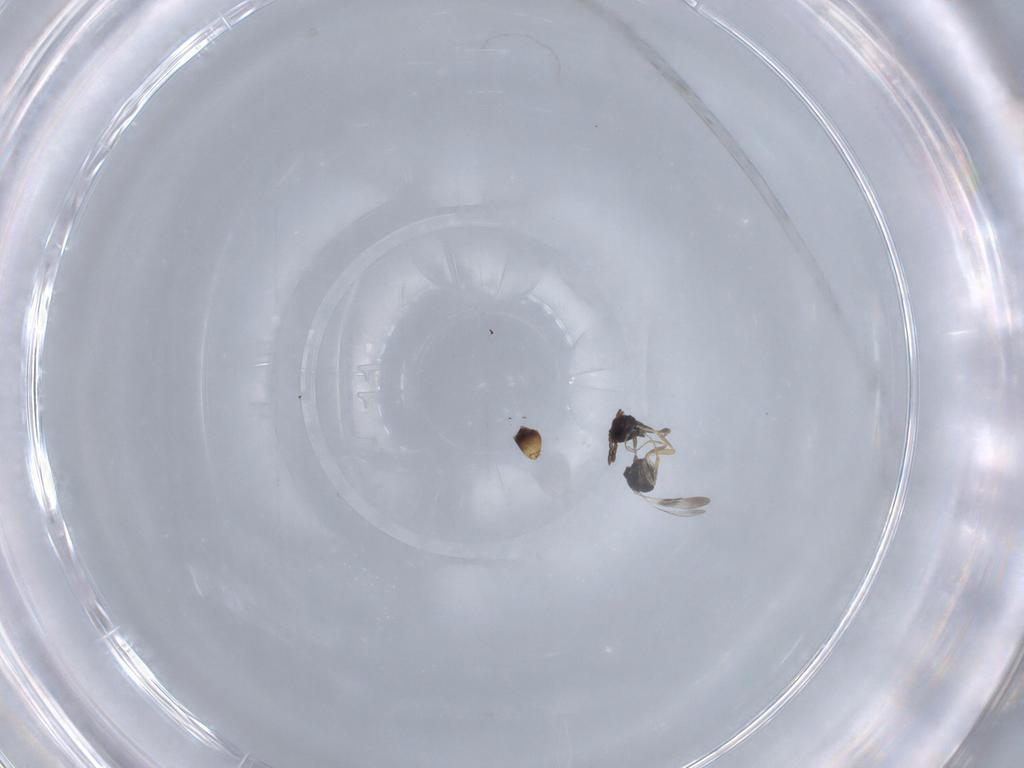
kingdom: Animalia
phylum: Arthropoda
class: Insecta
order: Hymenoptera
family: Ceraphronidae
